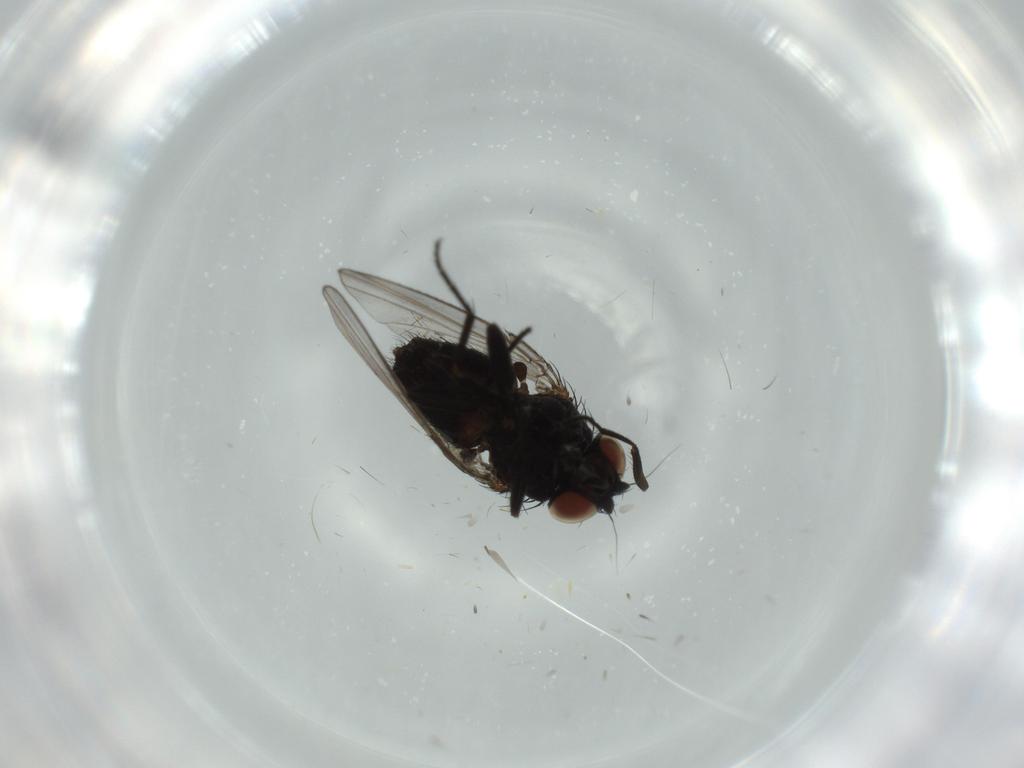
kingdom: Animalia
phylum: Arthropoda
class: Insecta
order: Diptera
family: Milichiidae
